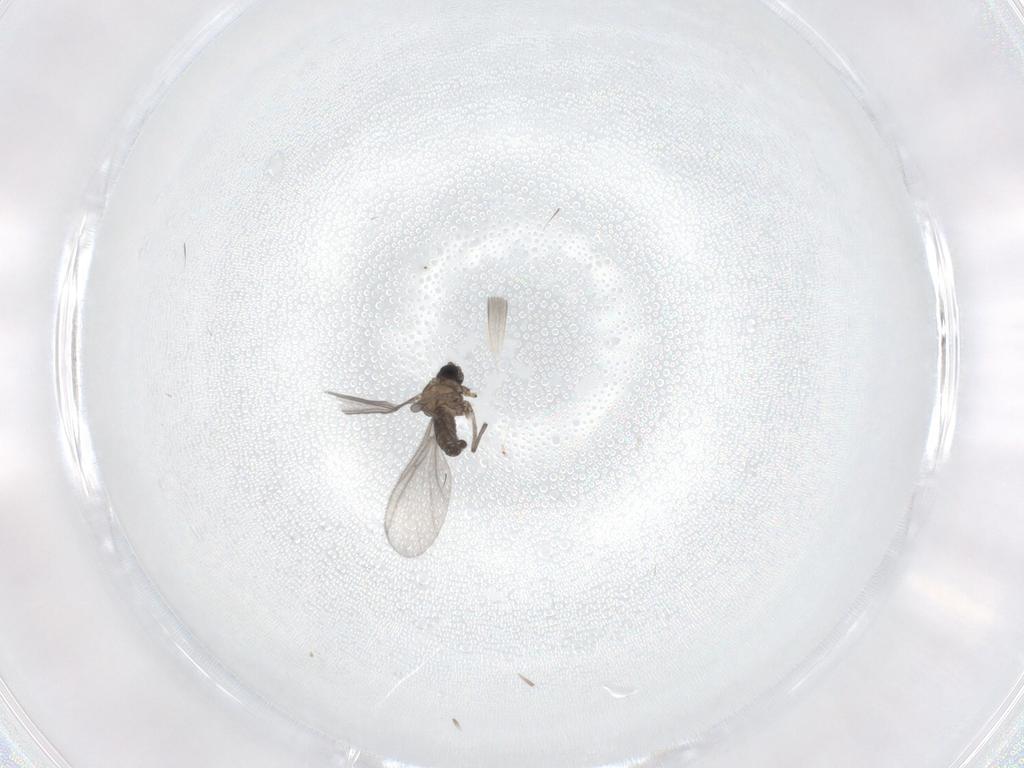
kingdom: Animalia
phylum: Arthropoda
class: Insecta
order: Diptera
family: Sciaridae
